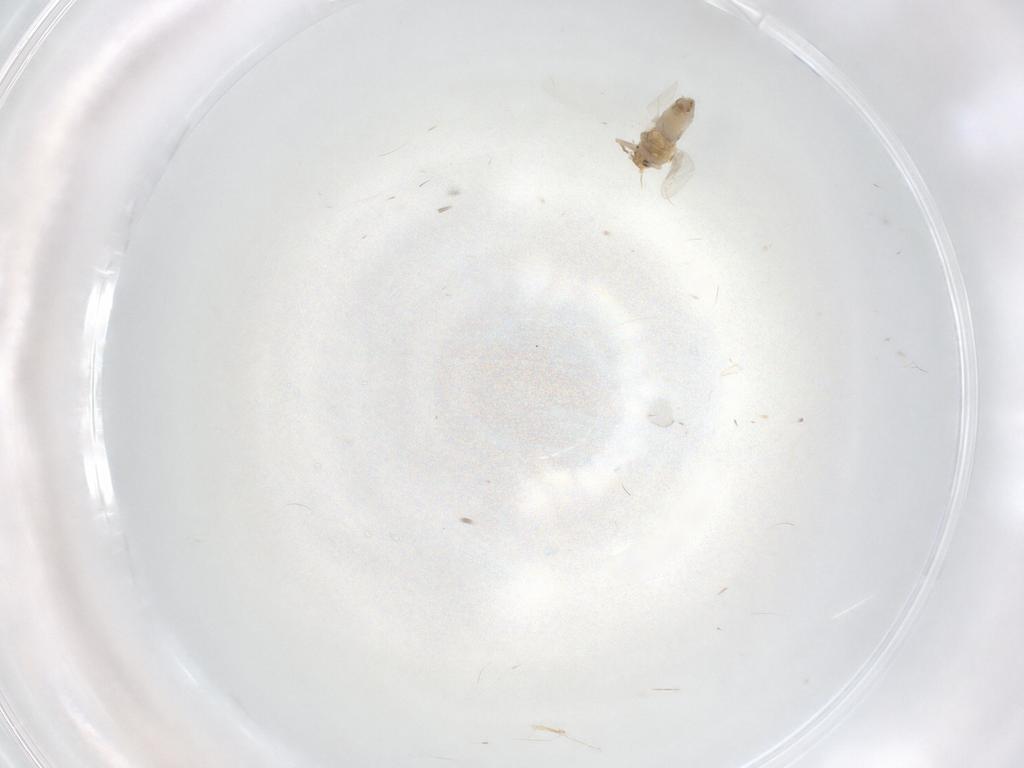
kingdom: Animalia
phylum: Arthropoda
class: Insecta
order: Hemiptera
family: Aleyrodidae
